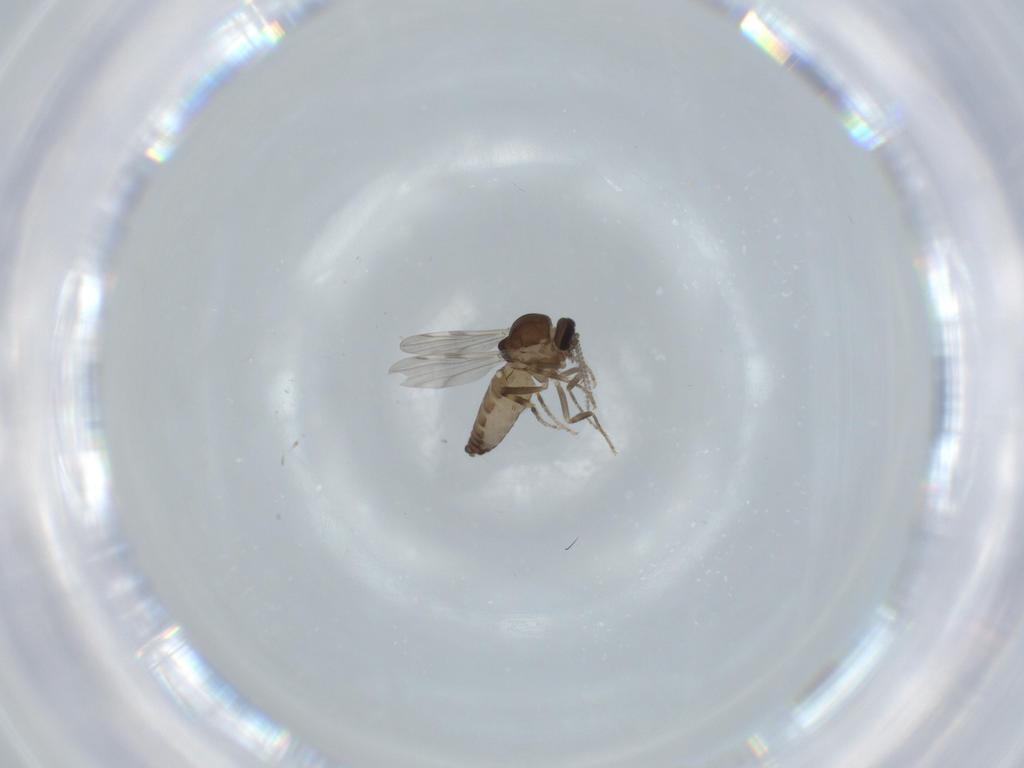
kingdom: Animalia
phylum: Arthropoda
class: Insecta
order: Diptera
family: Ceratopogonidae
